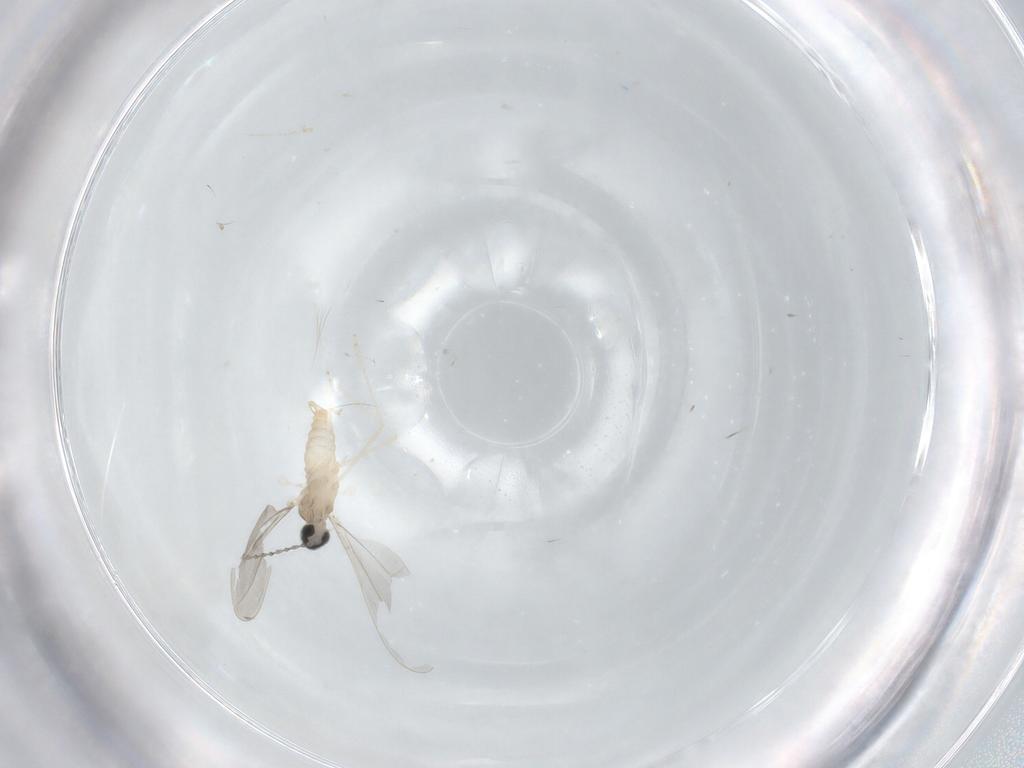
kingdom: Animalia
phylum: Arthropoda
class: Insecta
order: Diptera
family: Cecidomyiidae
